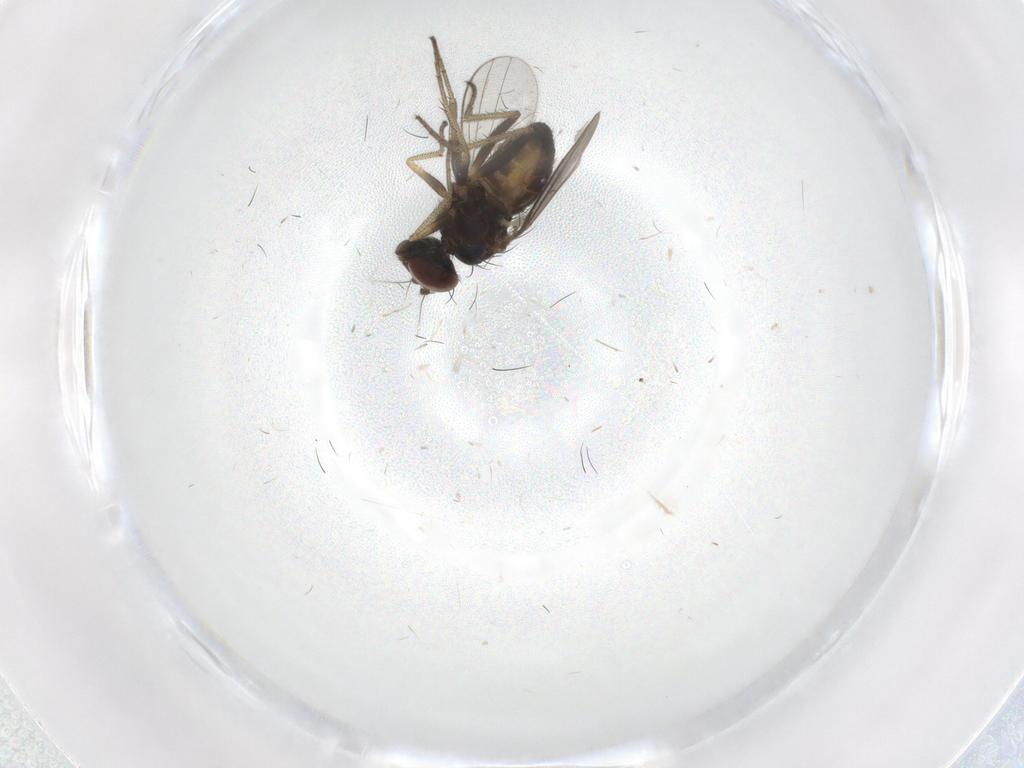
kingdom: Animalia
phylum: Arthropoda
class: Insecta
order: Diptera
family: Sciaridae
